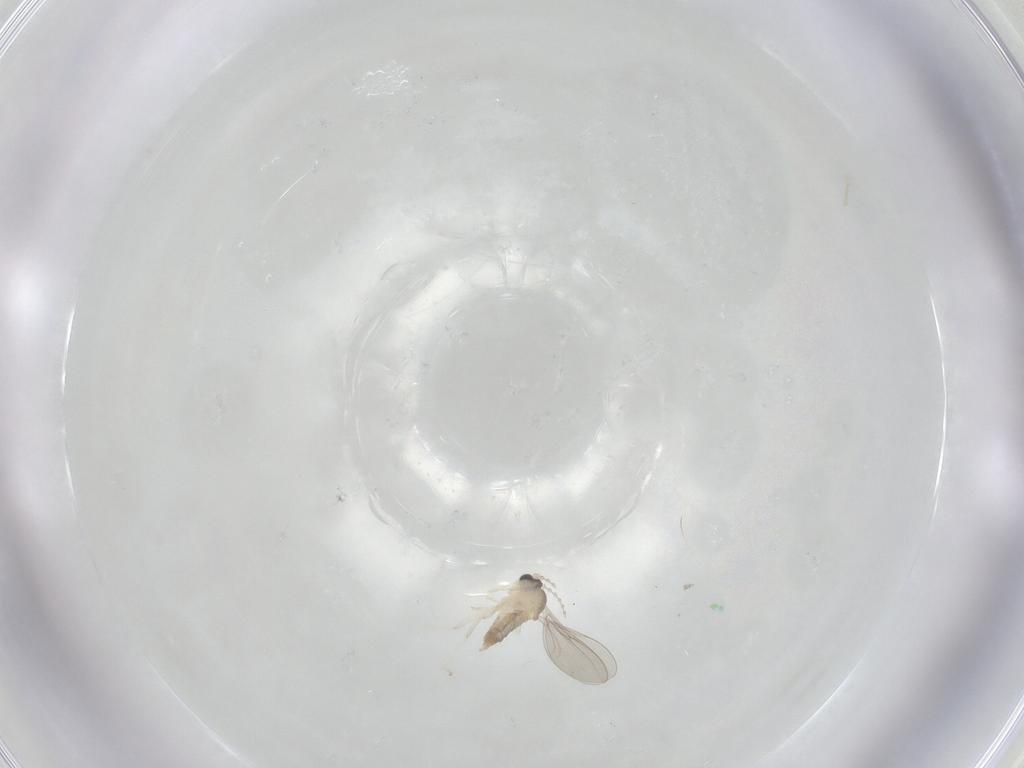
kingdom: Animalia
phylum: Arthropoda
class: Insecta
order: Diptera
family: Cecidomyiidae
